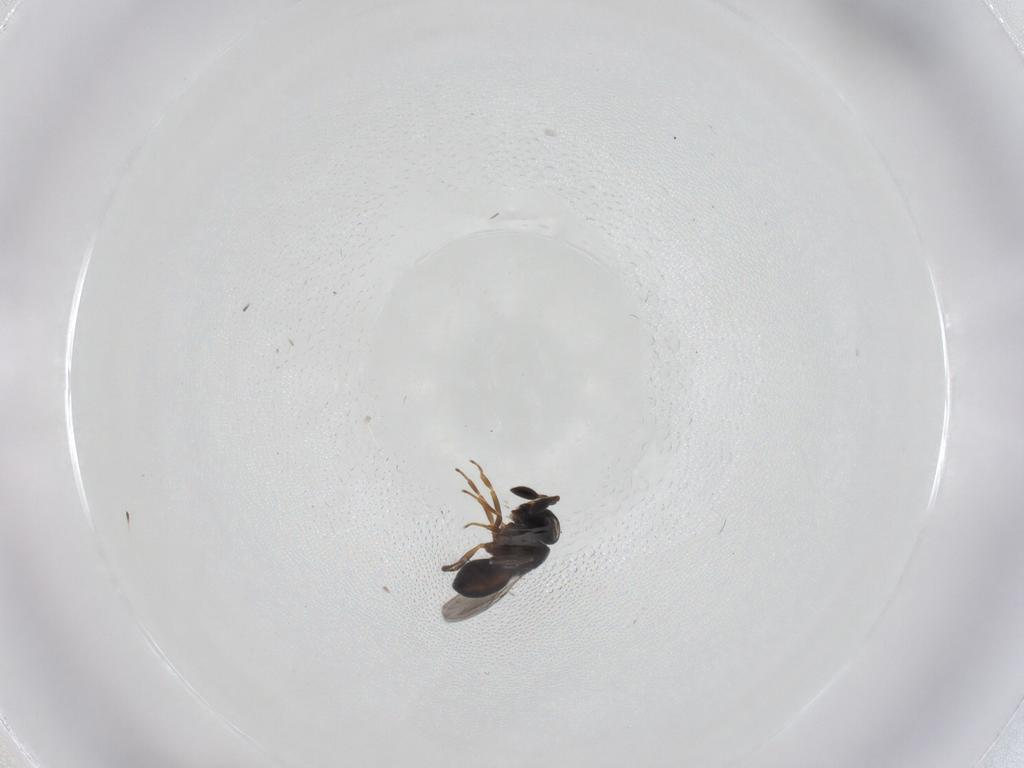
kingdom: Animalia
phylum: Arthropoda
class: Insecta
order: Hymenoptera
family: Scelionidae
